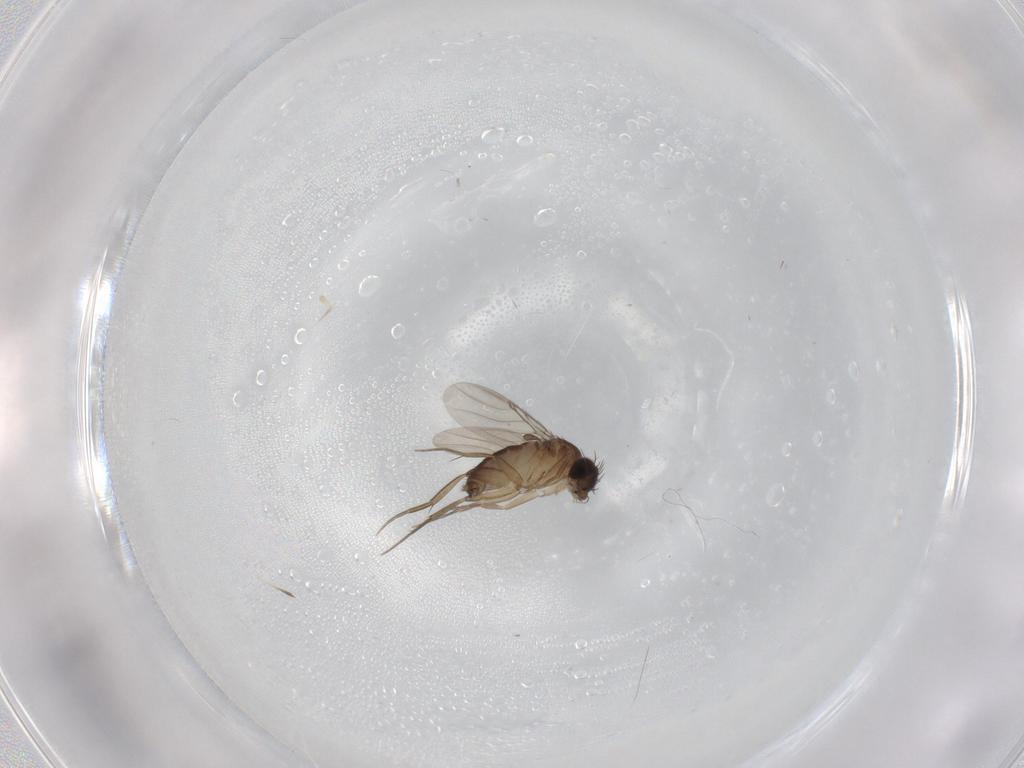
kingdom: Animalia
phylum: Arthropoda
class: Insecta
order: Diptera
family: Phoridae
